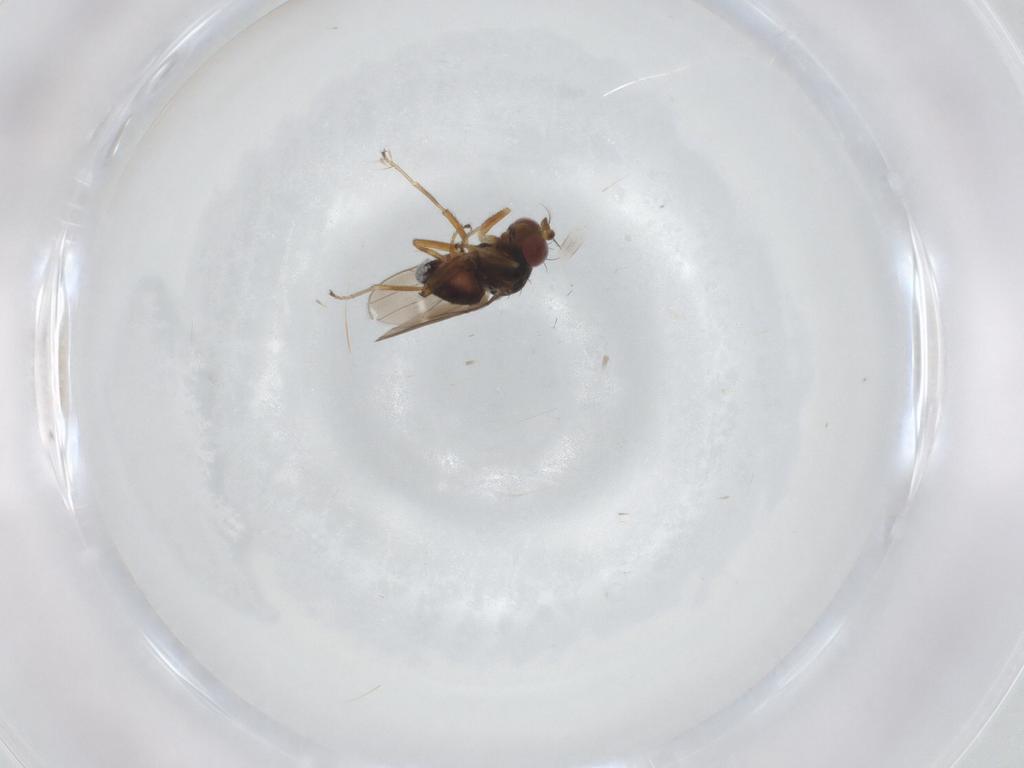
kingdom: Animalia
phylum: Arthropoda
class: Insecta
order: Diptera
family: Ephydridae
